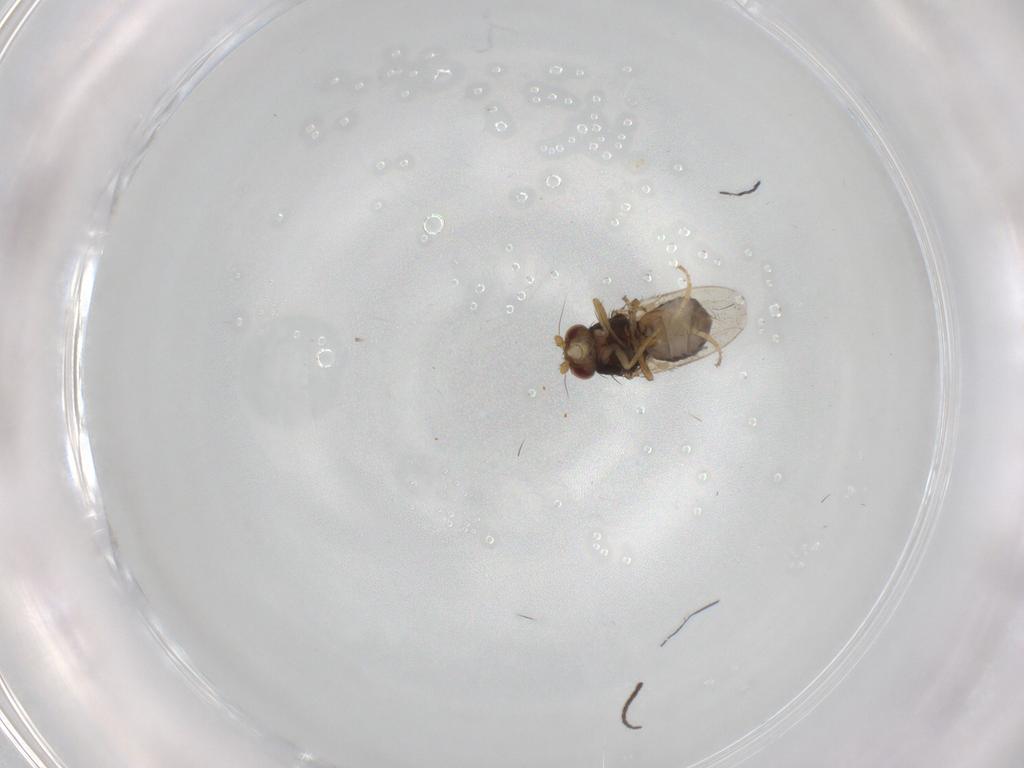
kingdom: Animalia
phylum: Arthropoda
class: Insecta
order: Diptera
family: Sphaeroceridae
